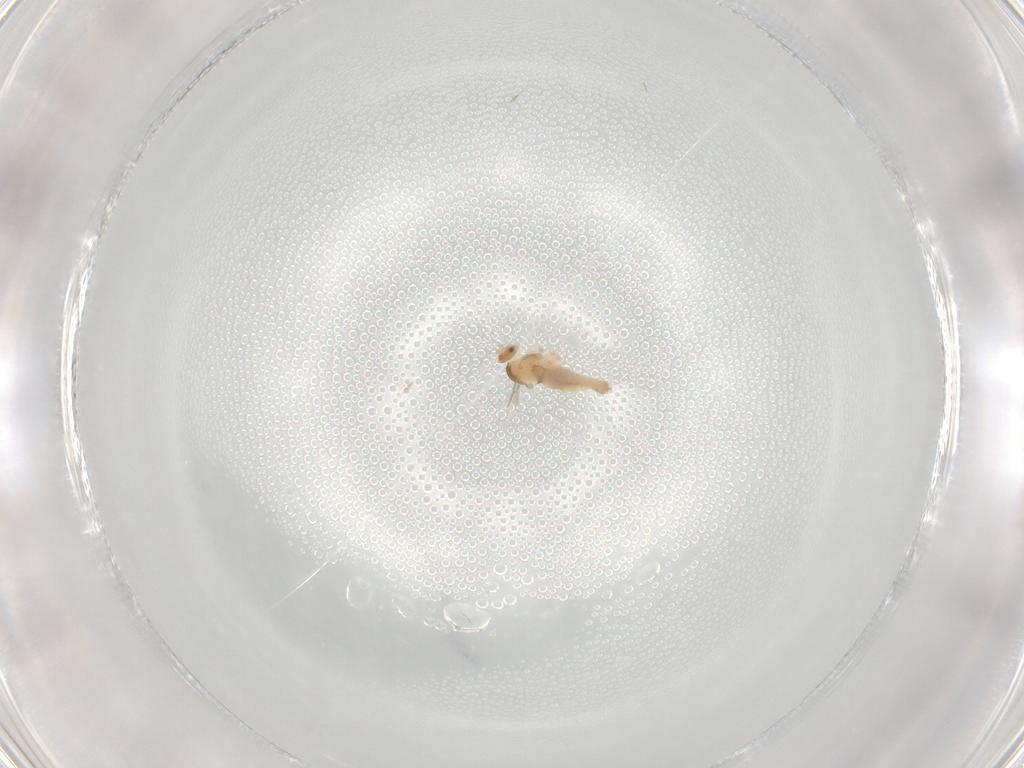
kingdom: Animalia
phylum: Arthropoda
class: Insecta
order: Diptera
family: Cecidomyiidae
